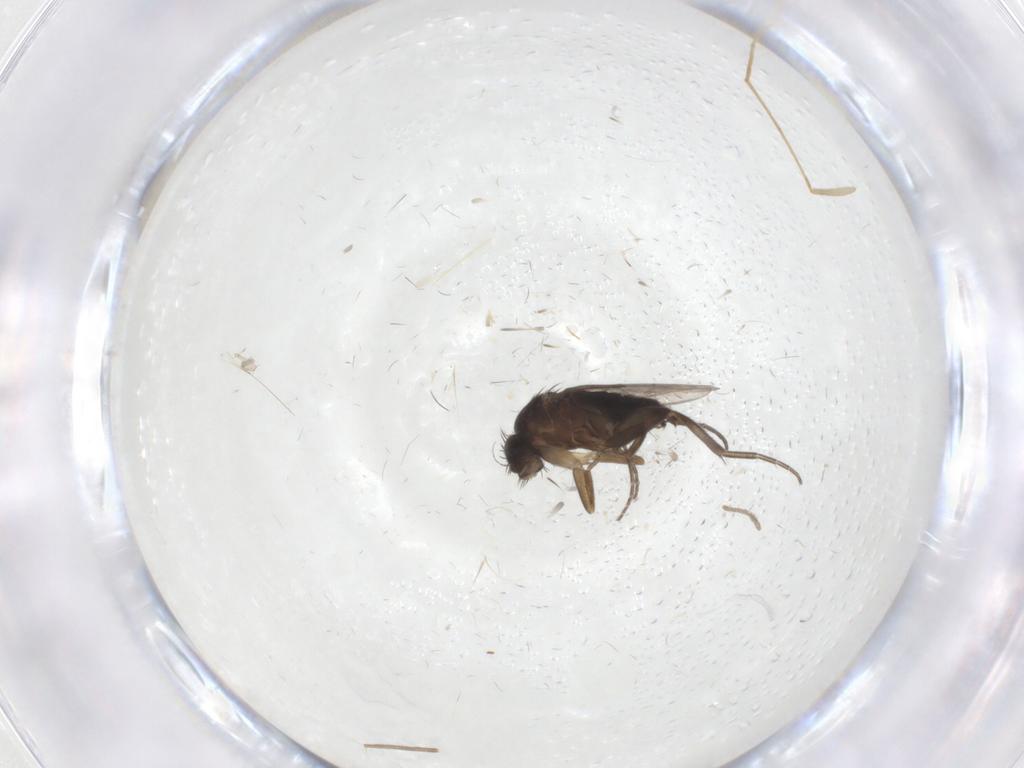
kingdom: Animalia
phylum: Arthropoda
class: Insecta
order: Diptera
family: Phoridae
